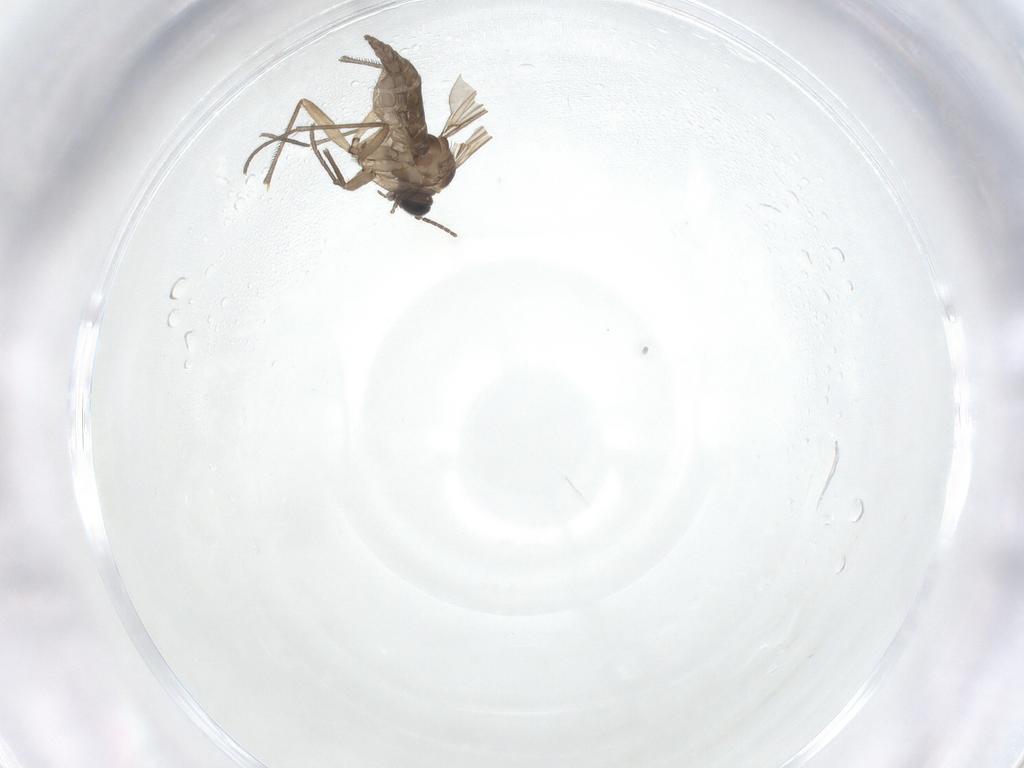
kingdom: Animalia
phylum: Arthropoda
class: Insecta
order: Diptera
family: Sciaridae
